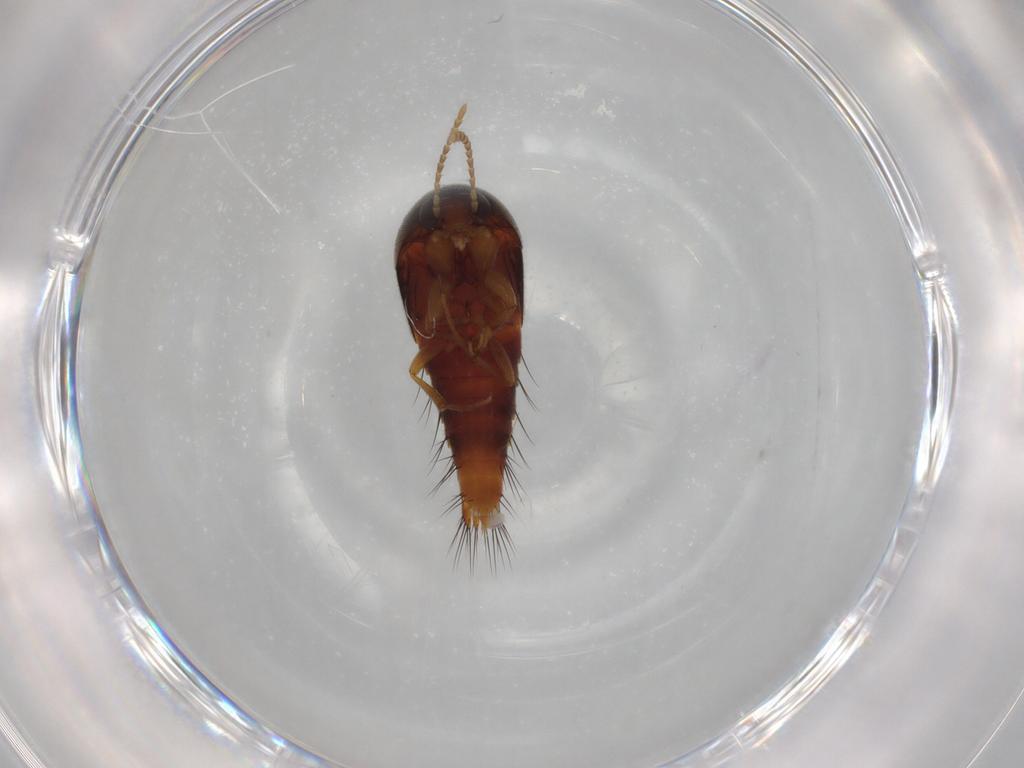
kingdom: Animalia
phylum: Arthropoda
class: Insecta
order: Coleoptera
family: Staphylinidae
